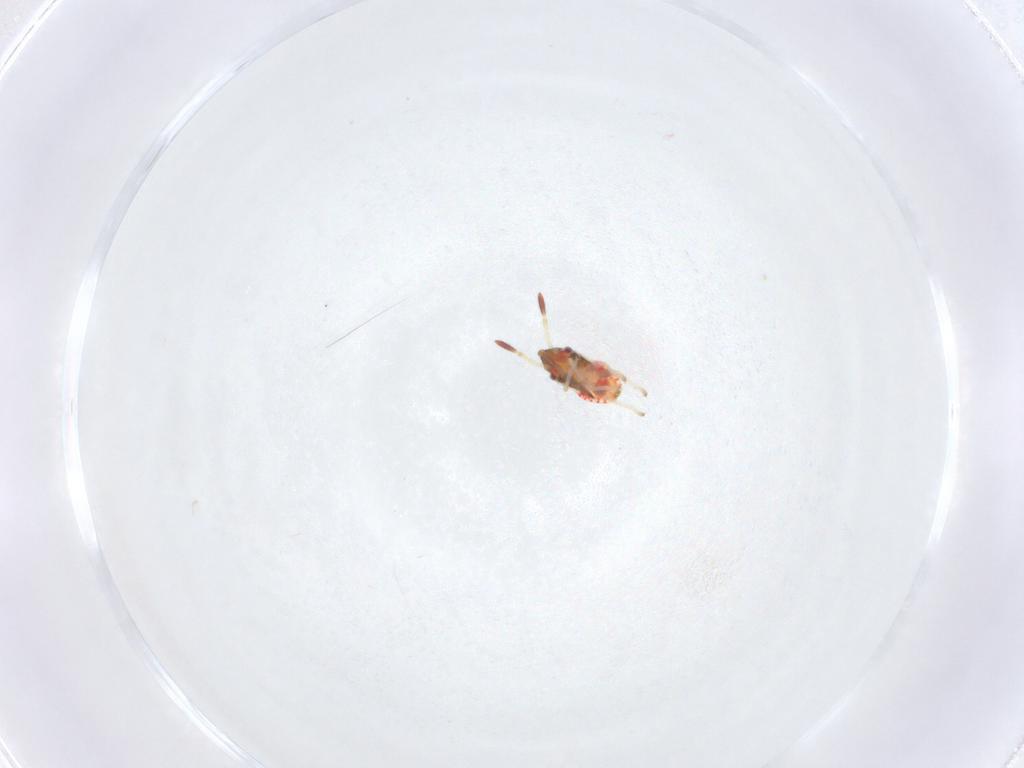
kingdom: Animalia
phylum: Arthropoda
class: Insecta
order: Hemiptera
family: Lygaeidae
